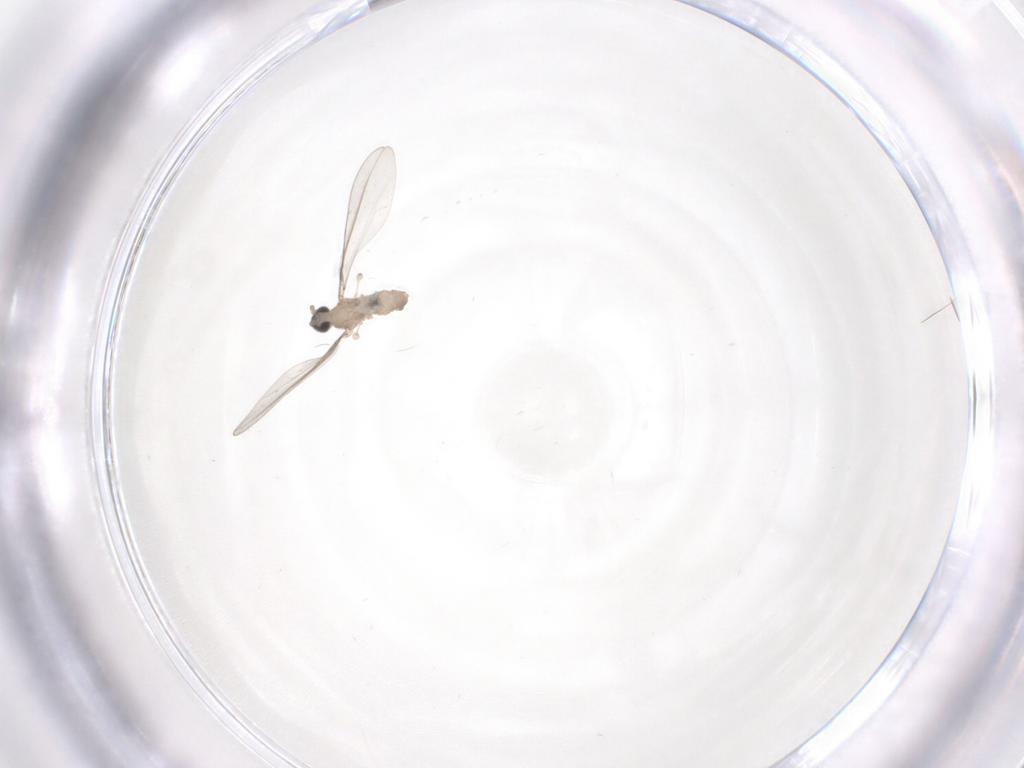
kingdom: Animalia
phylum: Arthropoda
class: Insecta
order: Diptera
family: Cecidomyiidae
